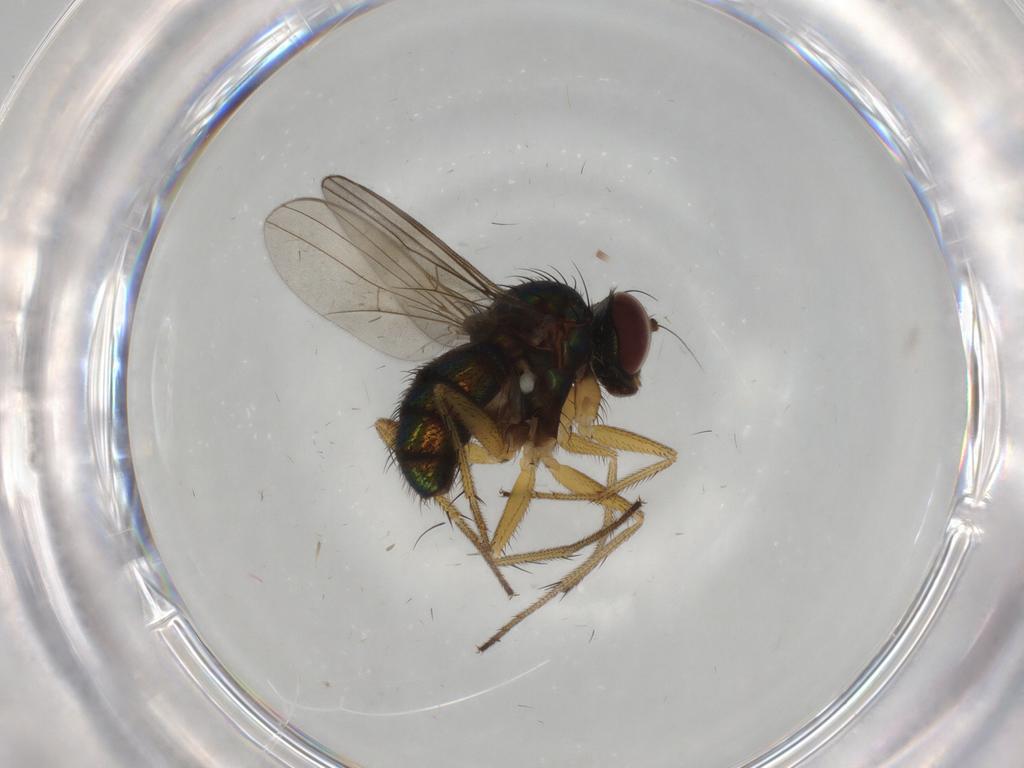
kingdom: Animalia
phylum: Arthropoda
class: Insecta
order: Diptera
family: Dolichopodidae
